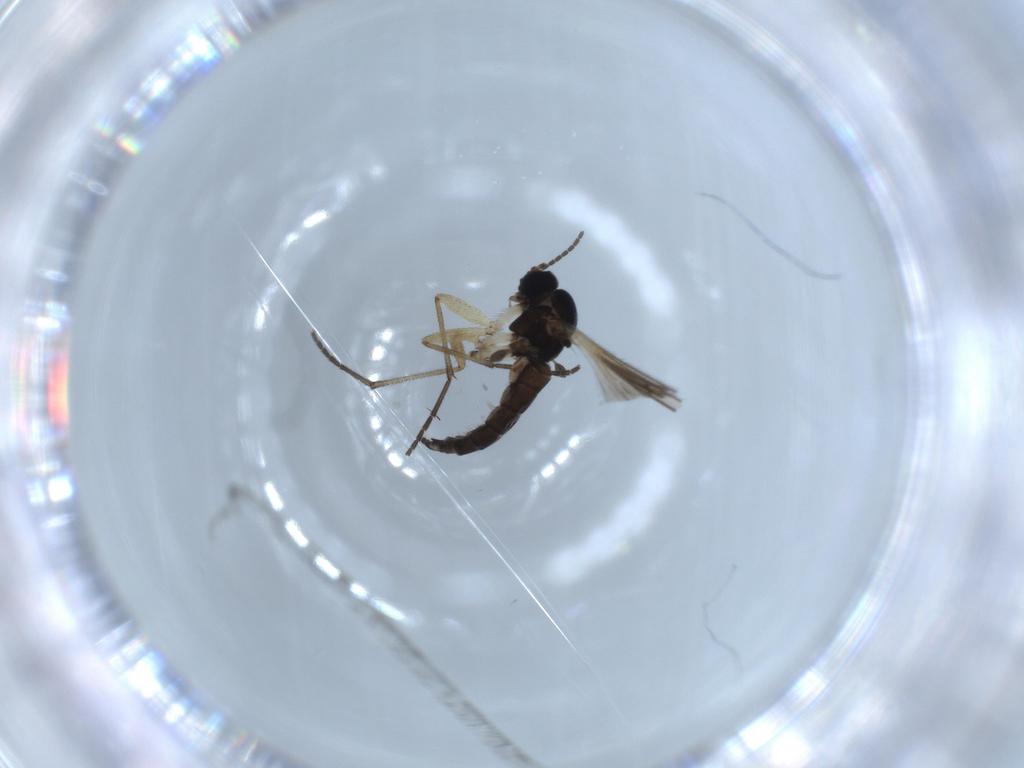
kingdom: Animalia
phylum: Arthropoda
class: Insecta
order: Diptera
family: Sciaridae
